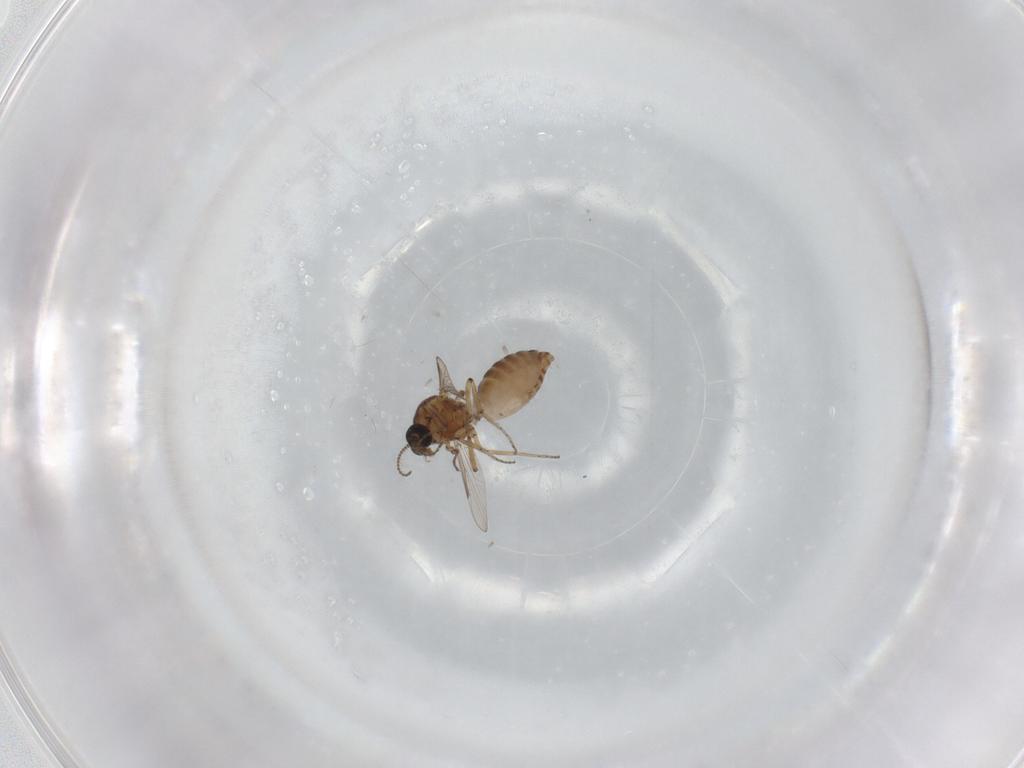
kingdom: Animalia
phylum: Arthropoda
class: Insecta
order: Diptera
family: Ceratopogonidae
